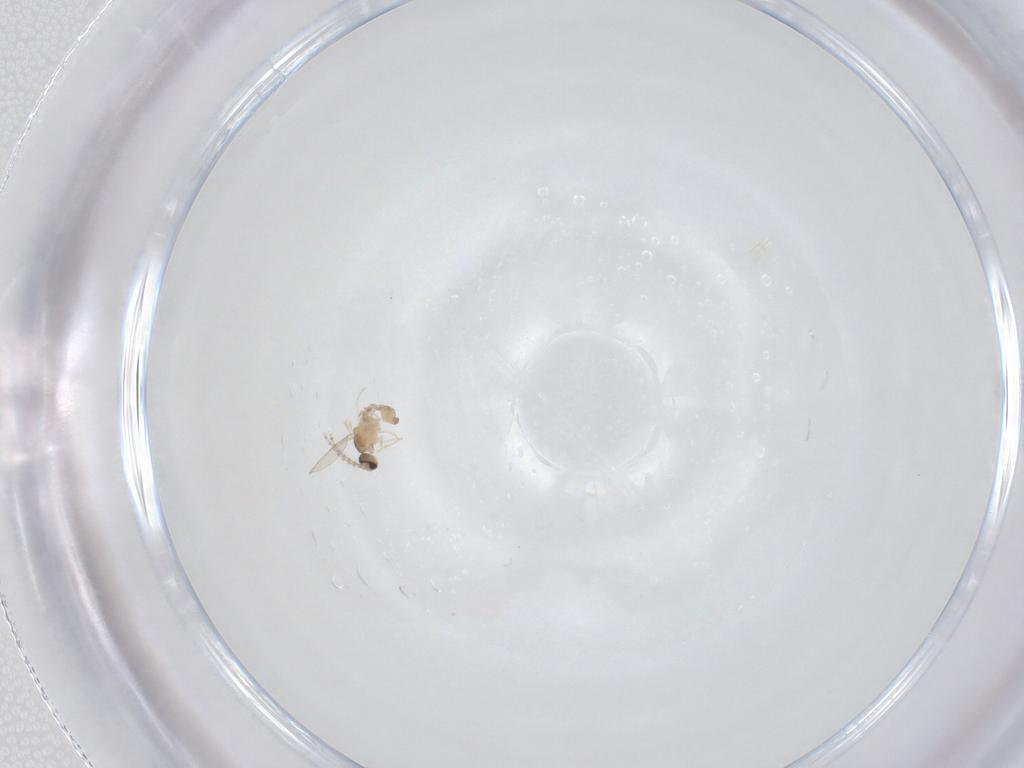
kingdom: Animalia
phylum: Arthropoda
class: Insecta
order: Diptera
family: Cecidomyiidae
